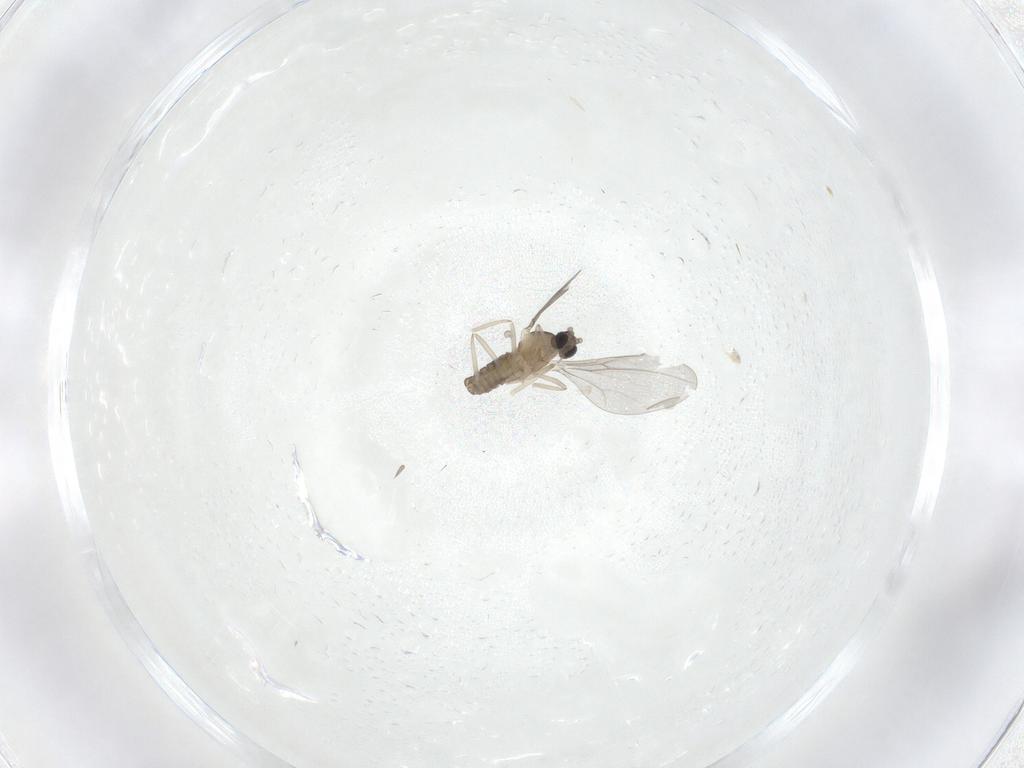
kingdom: Animalia
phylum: Arthropoda
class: Insecta
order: Diptera
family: Cecidomyiidae
